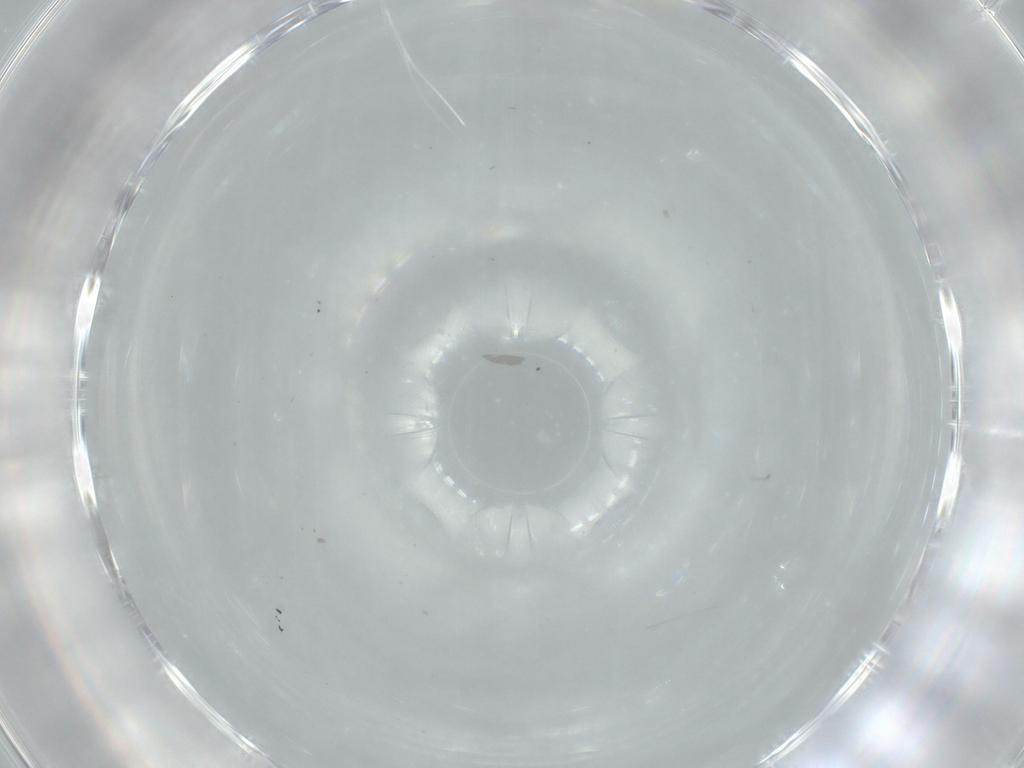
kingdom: Animalia
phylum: Arthropoda
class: Insecta
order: Hemiptera
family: Aleyrodidae
